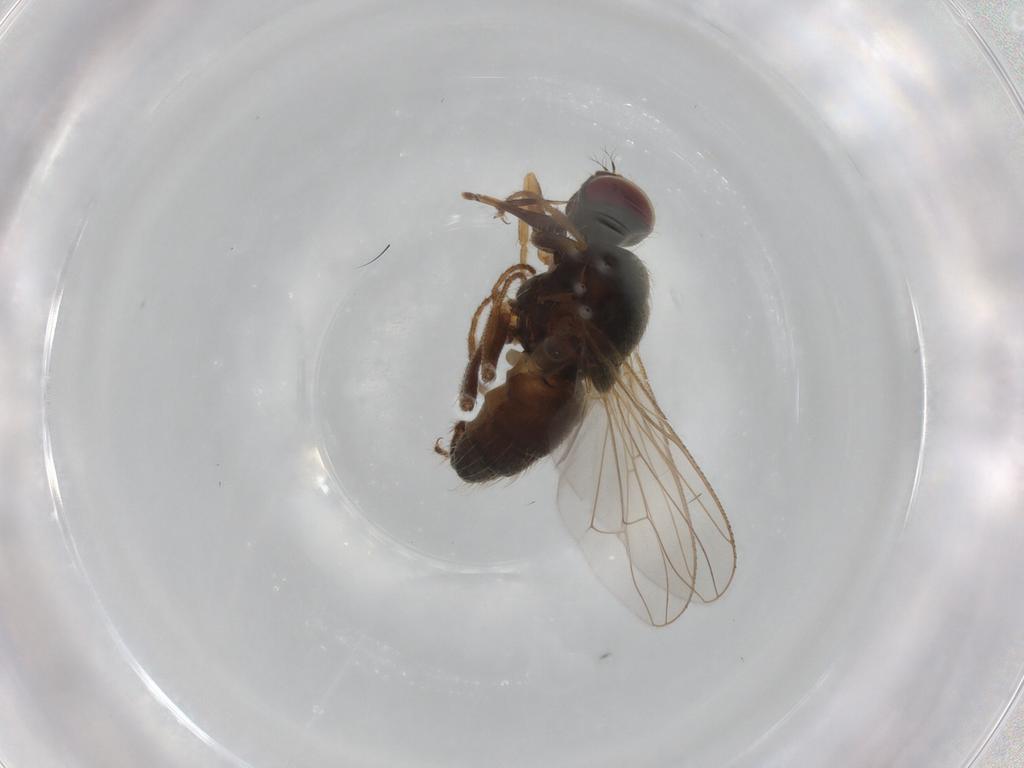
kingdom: Animalia
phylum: Arthropoda
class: Insecta
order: Diptera
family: Muscidae
